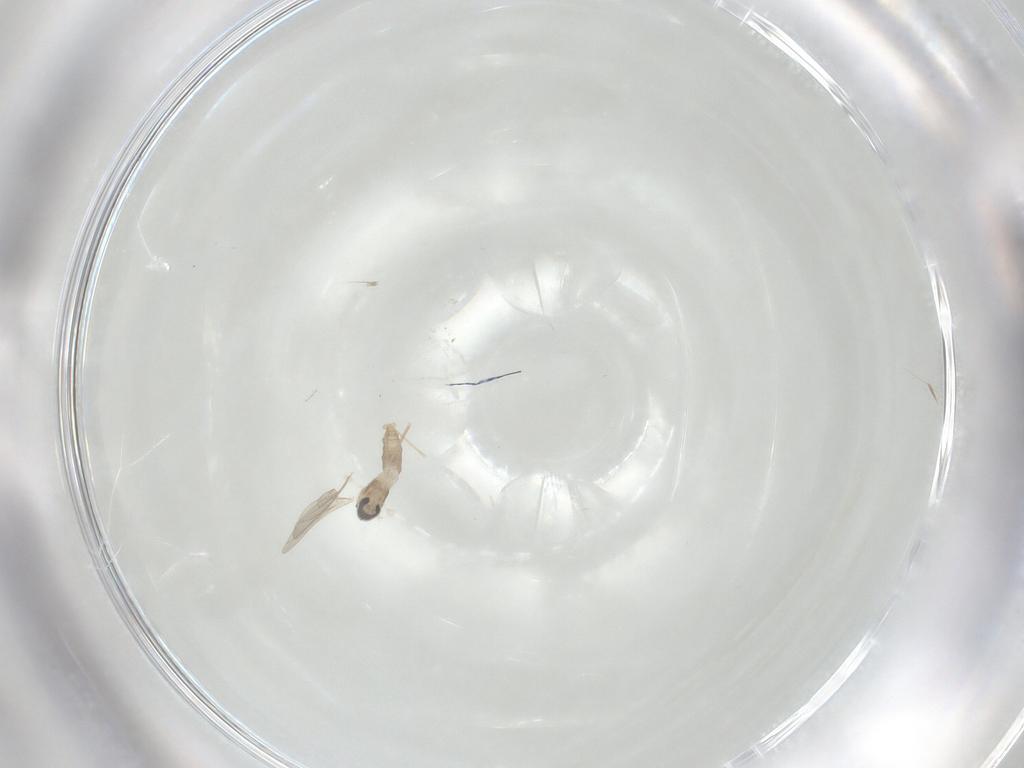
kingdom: Animalia
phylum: Arthropoda
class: Insecta
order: Diptera
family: Cecidomyiidae
